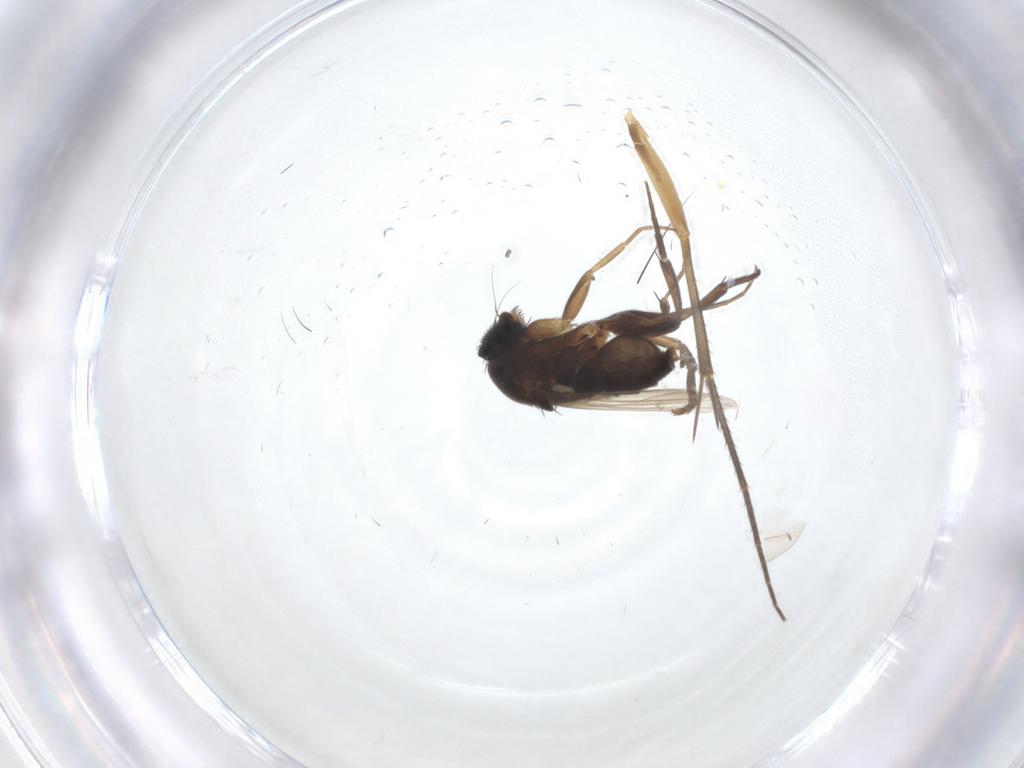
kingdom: Animalia
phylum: Arthropoda
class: Insecta
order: Diptera
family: Phoridae
